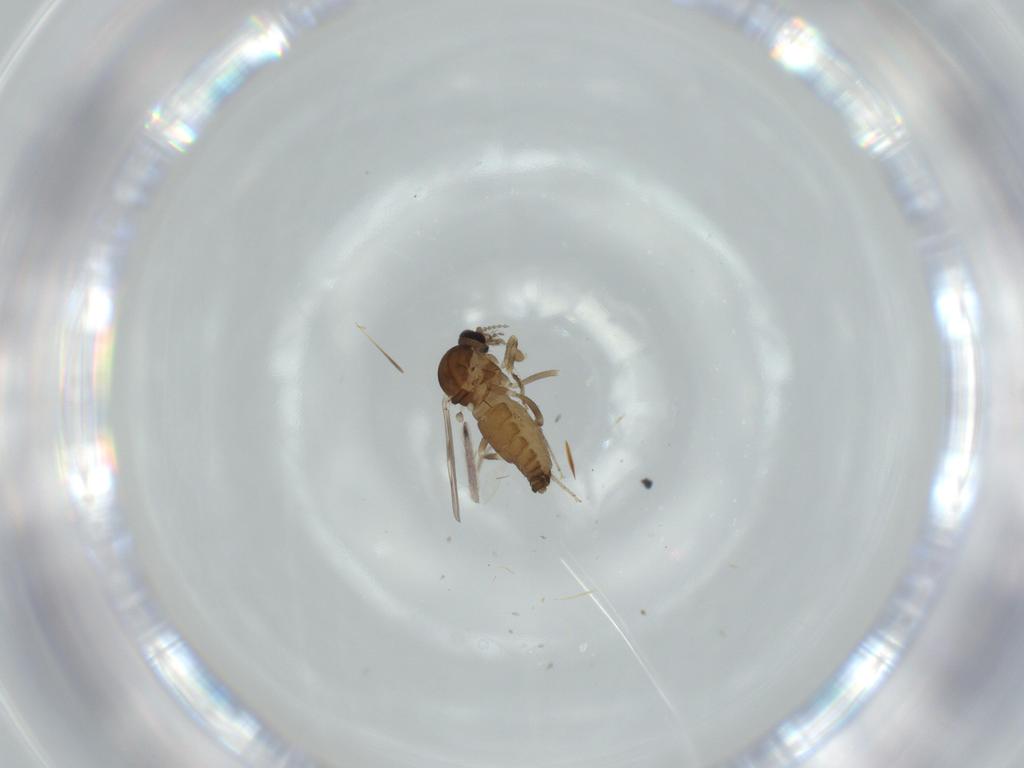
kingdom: Animalia
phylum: Arthropoda
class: Insecta
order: Diptera
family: Ceratopogonidae
